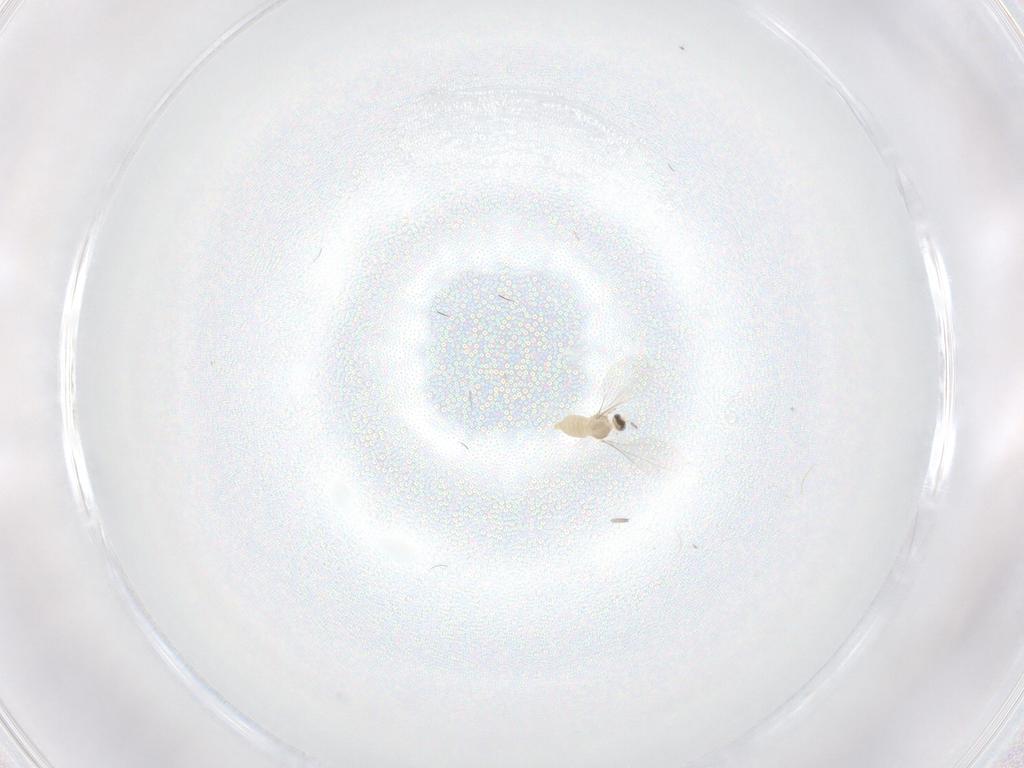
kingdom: Animalia
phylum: Arthropoda
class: Insecta
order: Diptera
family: Cecidomyiidae
